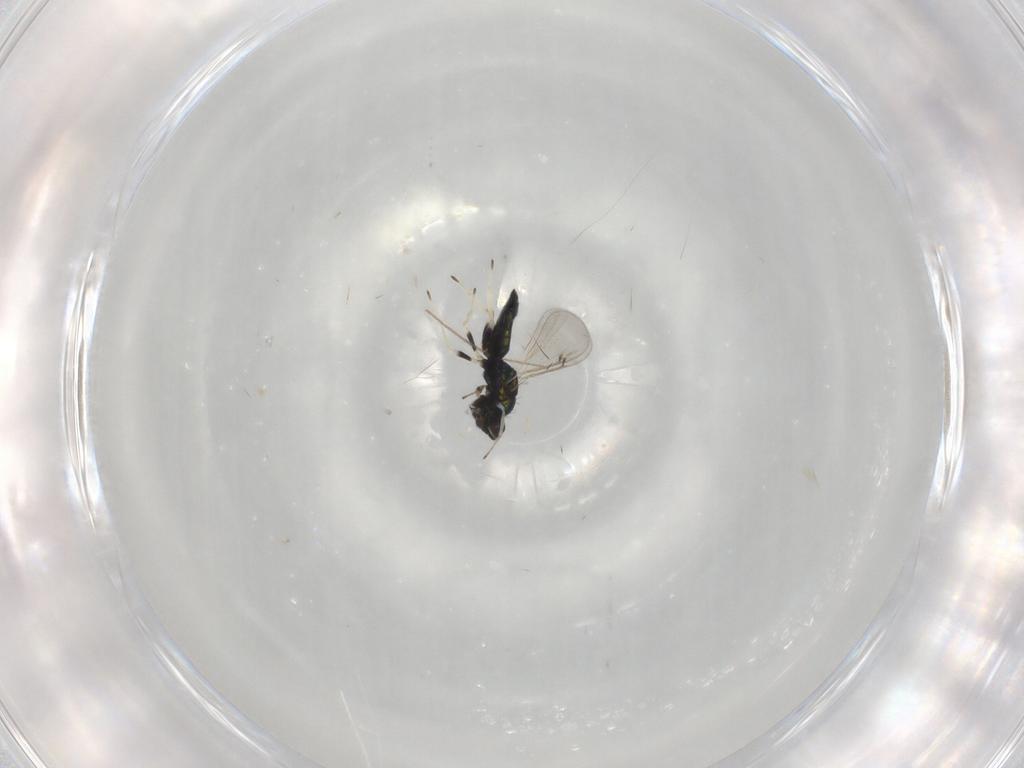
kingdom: Animalia
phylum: Arthropoda
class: Insecta
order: Hymenoptera
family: Eulophidae
